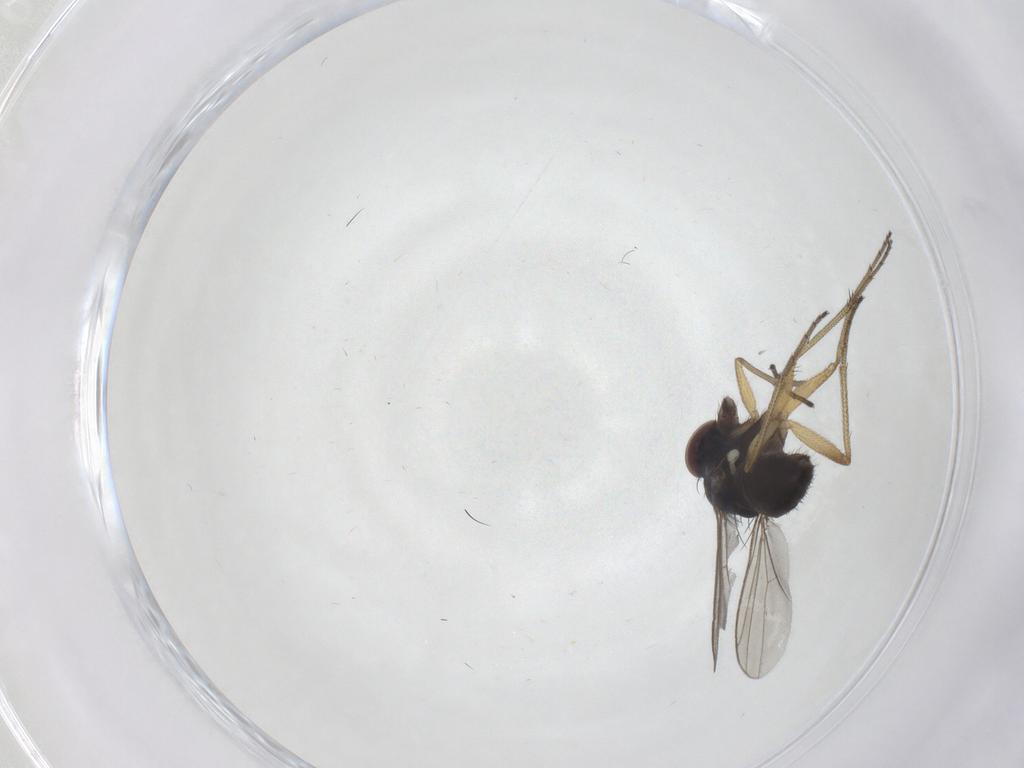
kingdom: Animalia
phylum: Arthropoda
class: Insecta
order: Diptera
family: Dolichopodidae
